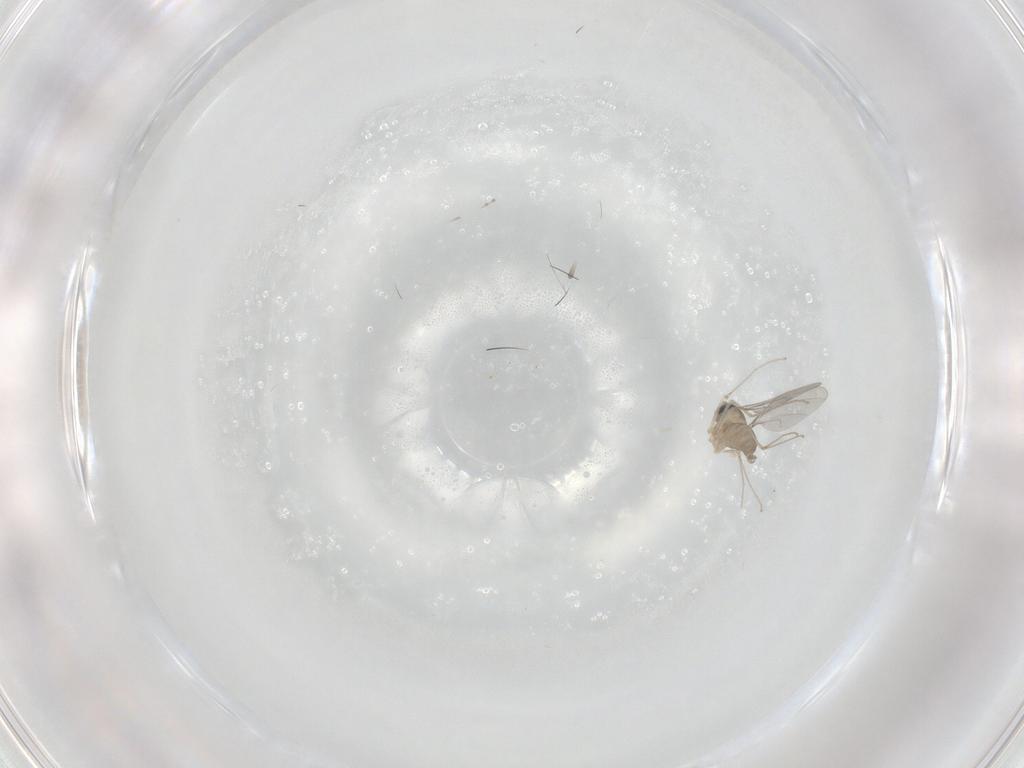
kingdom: Animalia
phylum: Arthropoda
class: Insecta
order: Diptera
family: Cecidomyiidae
